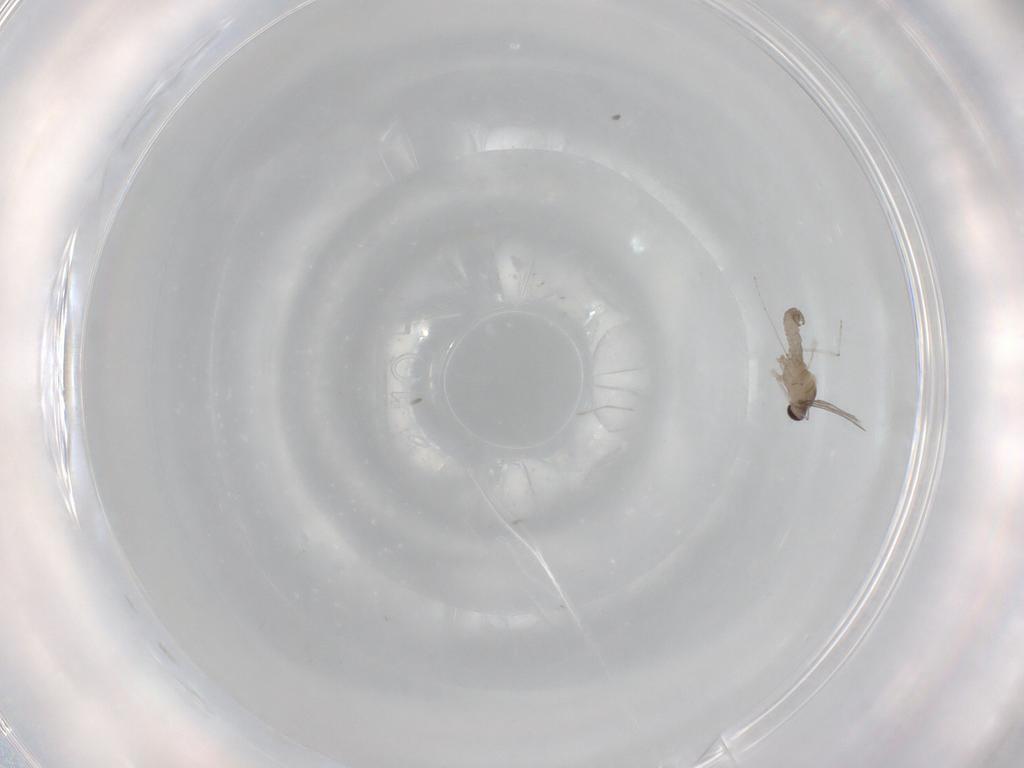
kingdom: Animalia
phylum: Arthropoda
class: Insecta
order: Diptera
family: Cecidomyiidae
